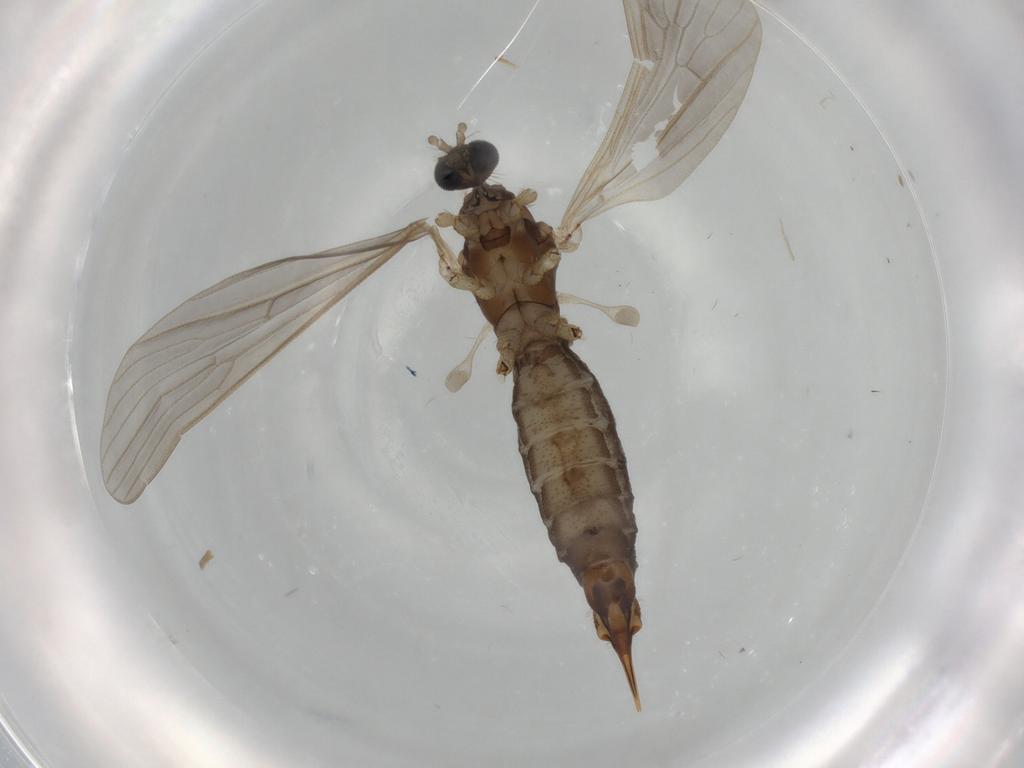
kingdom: Animalia
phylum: Arthropoda
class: Insecta
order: Diptera
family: Limoniidae
